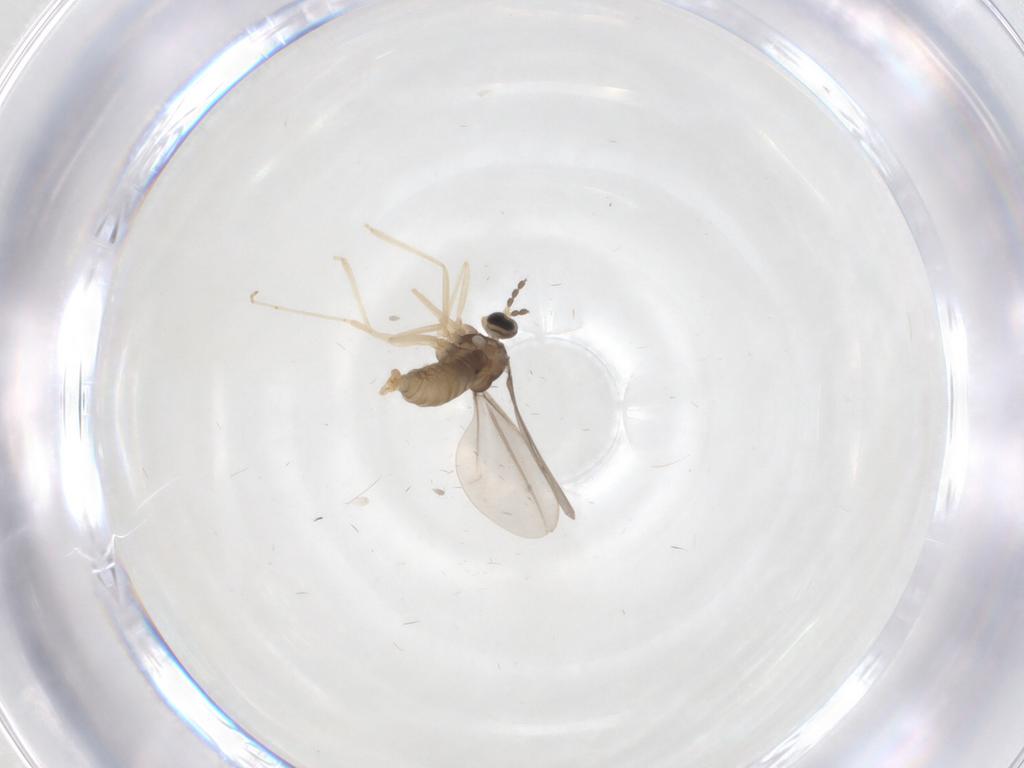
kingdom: Animalia
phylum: Arthropoda
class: Insecta
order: Diptera
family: Cecidomyiidae
